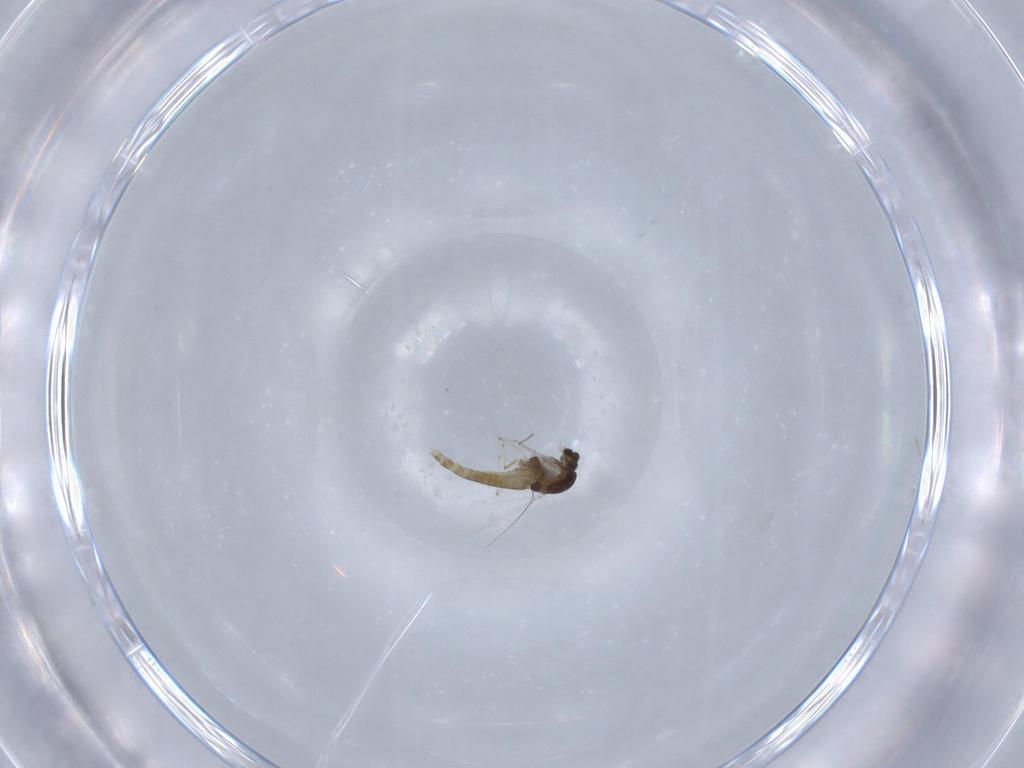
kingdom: Animalia
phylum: Arthropoda
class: Insecta
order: Diptera
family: Chironomidae
